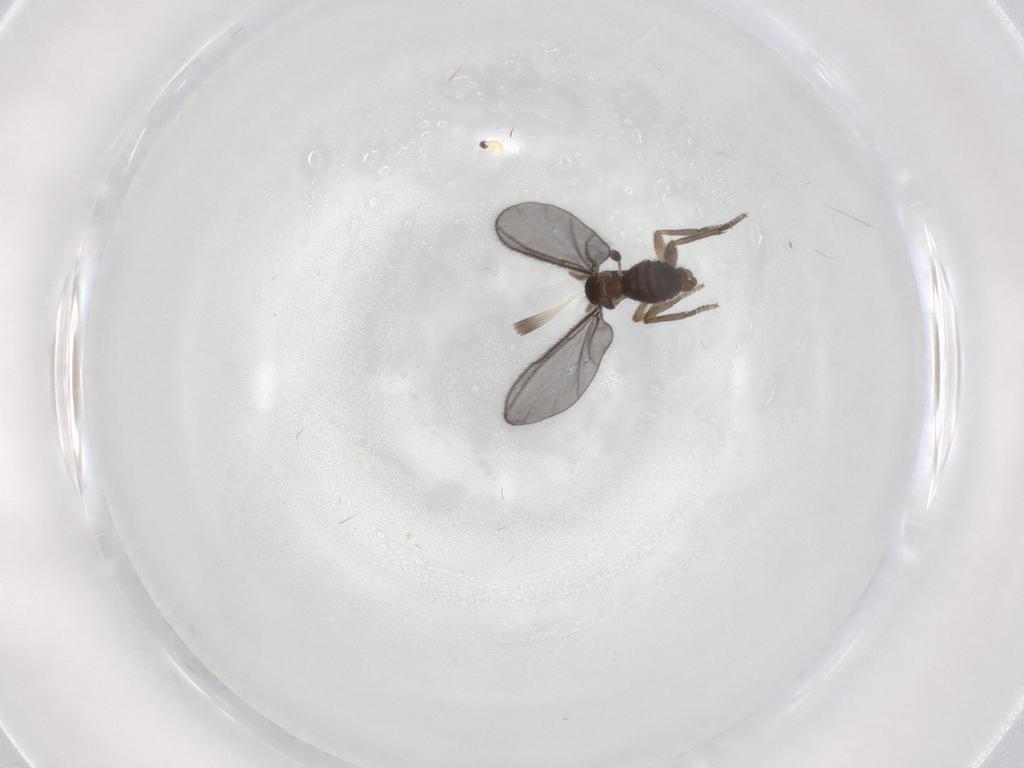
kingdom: Animalia
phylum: Arthropoda
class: Insecta
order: Diptera
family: Sciaridae
